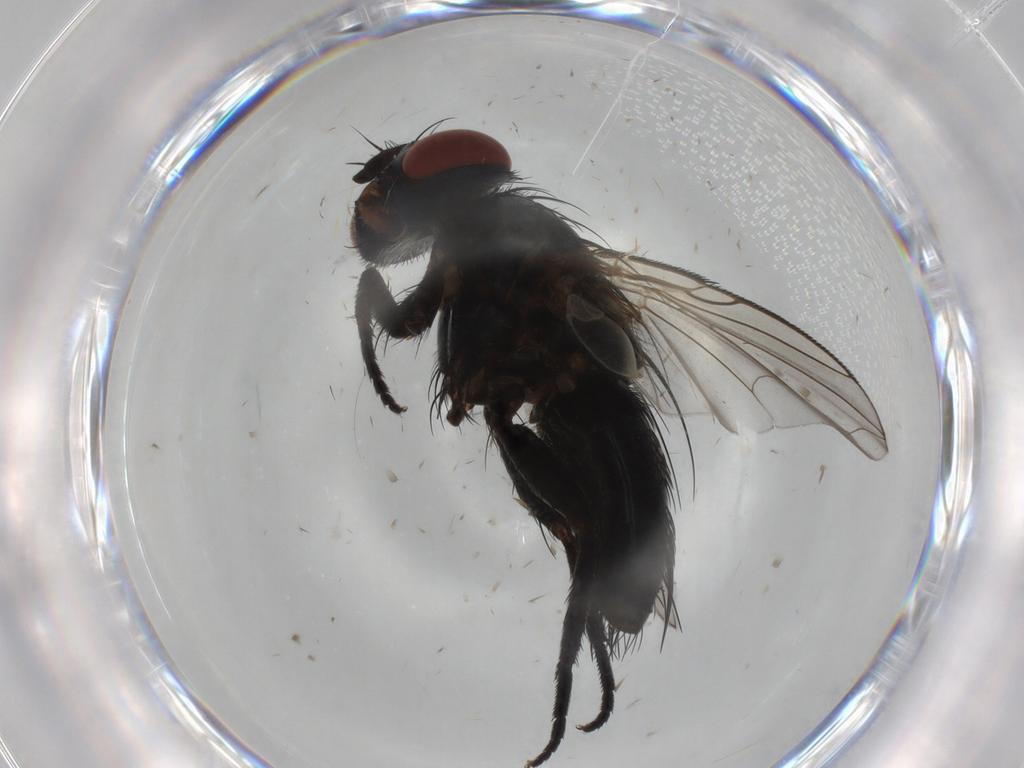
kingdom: Animalia
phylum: Arthropoda
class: Insecta
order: Diptera
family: Tachinidae
